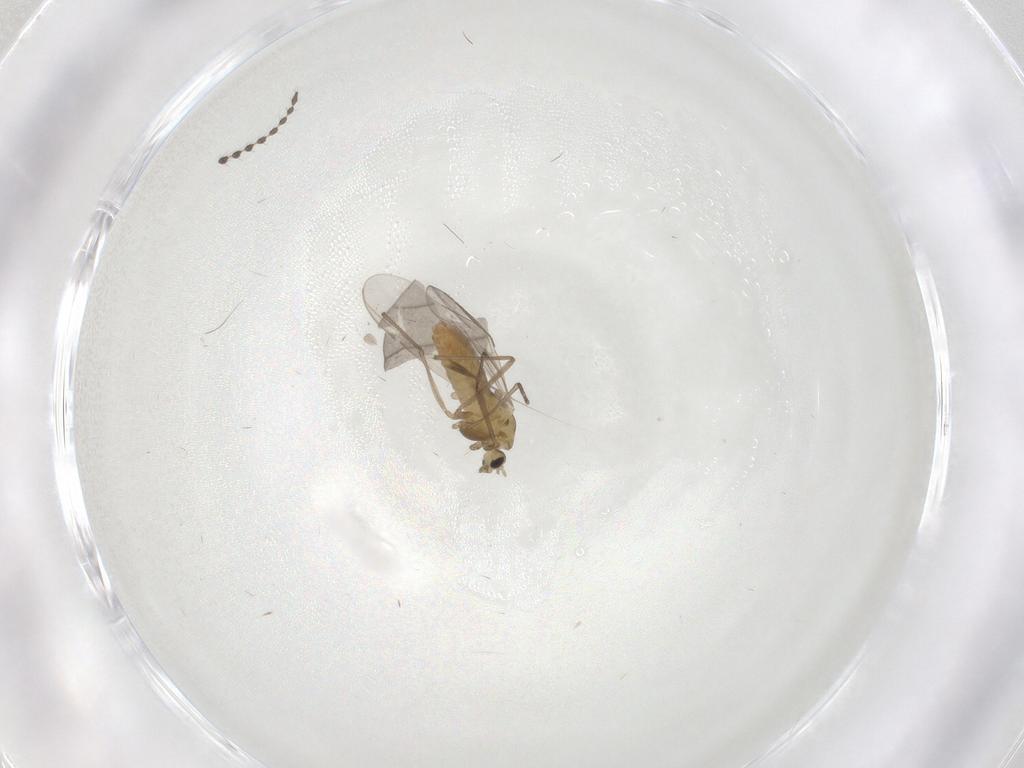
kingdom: Animalia
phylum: Arthropoda
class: Insecta
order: Diptera
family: Chironomidae
